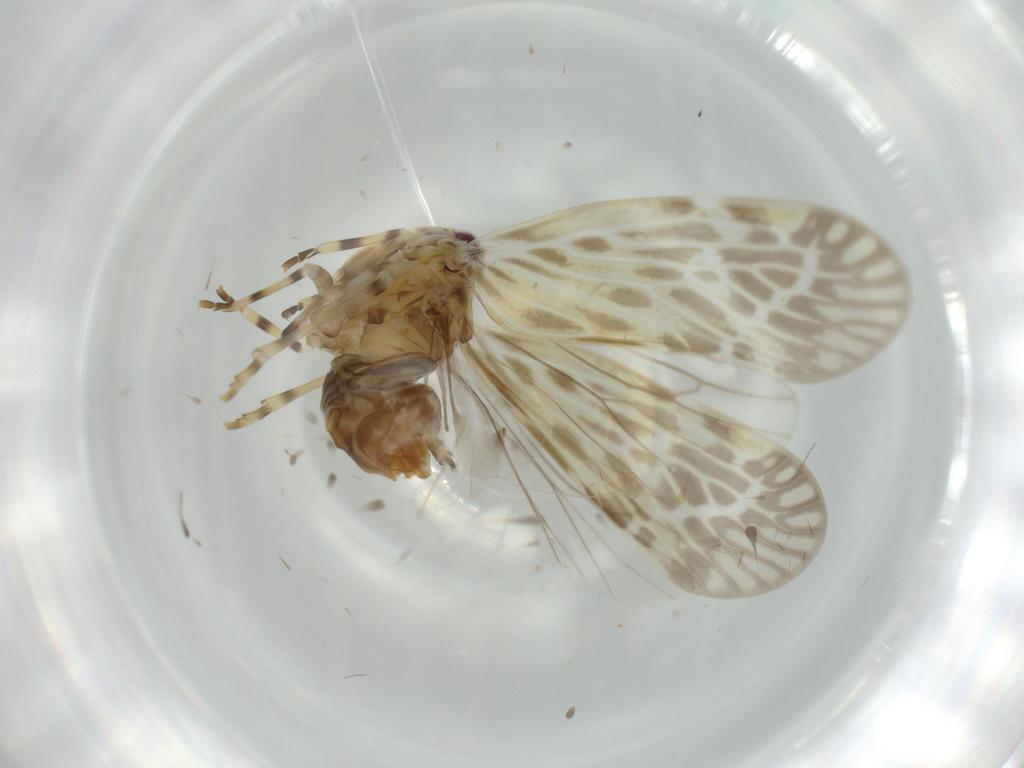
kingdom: Animalia
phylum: Arthropoda
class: Insecta
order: Hemiptera
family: Derbidae
